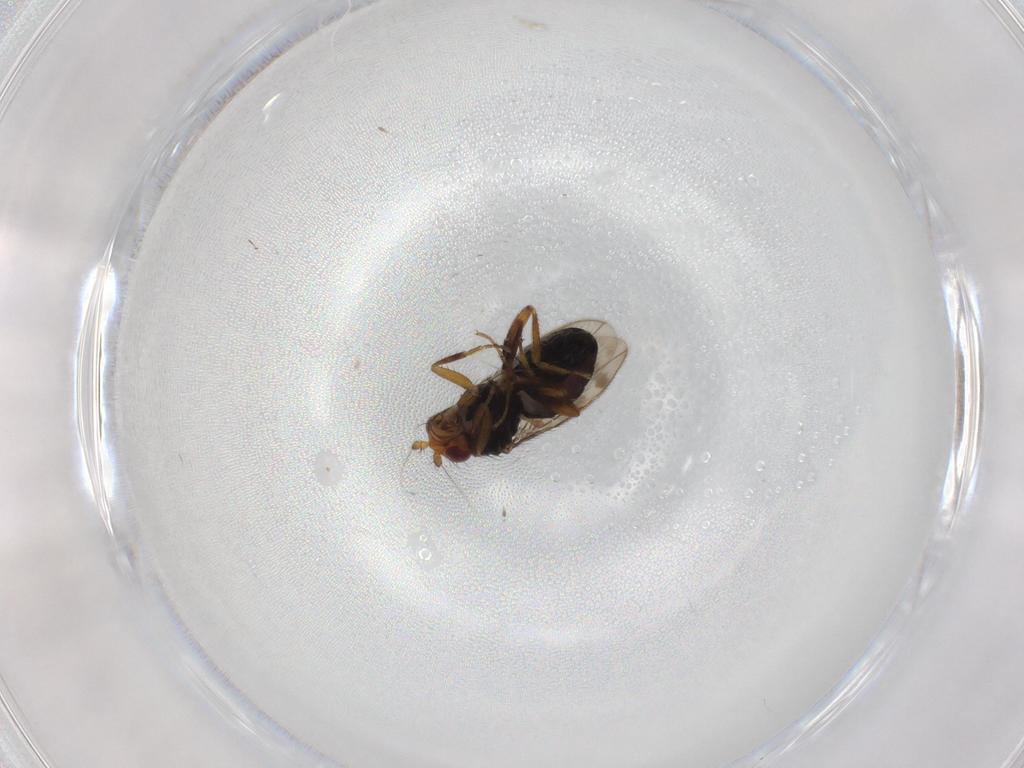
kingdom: Animalia
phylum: Arthropoda
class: Insecta
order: Diptera
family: Sphaeroceridae
